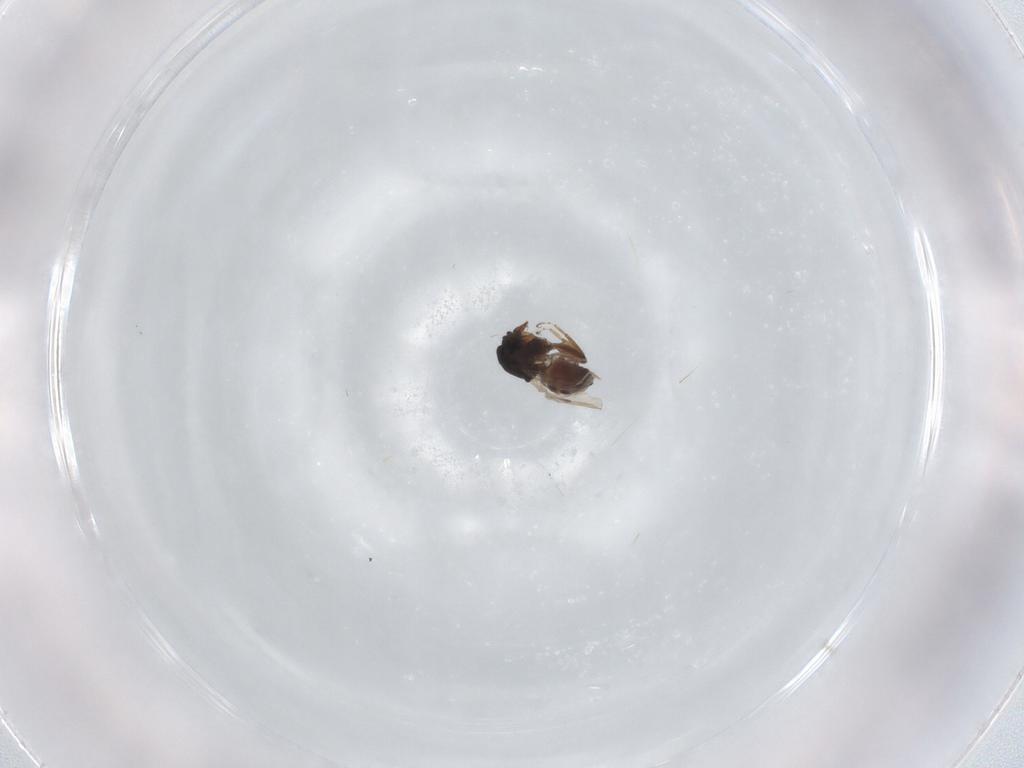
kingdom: Animalia
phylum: Arthropoda
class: Insecta
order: Diptera
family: Ceratopogonidae
